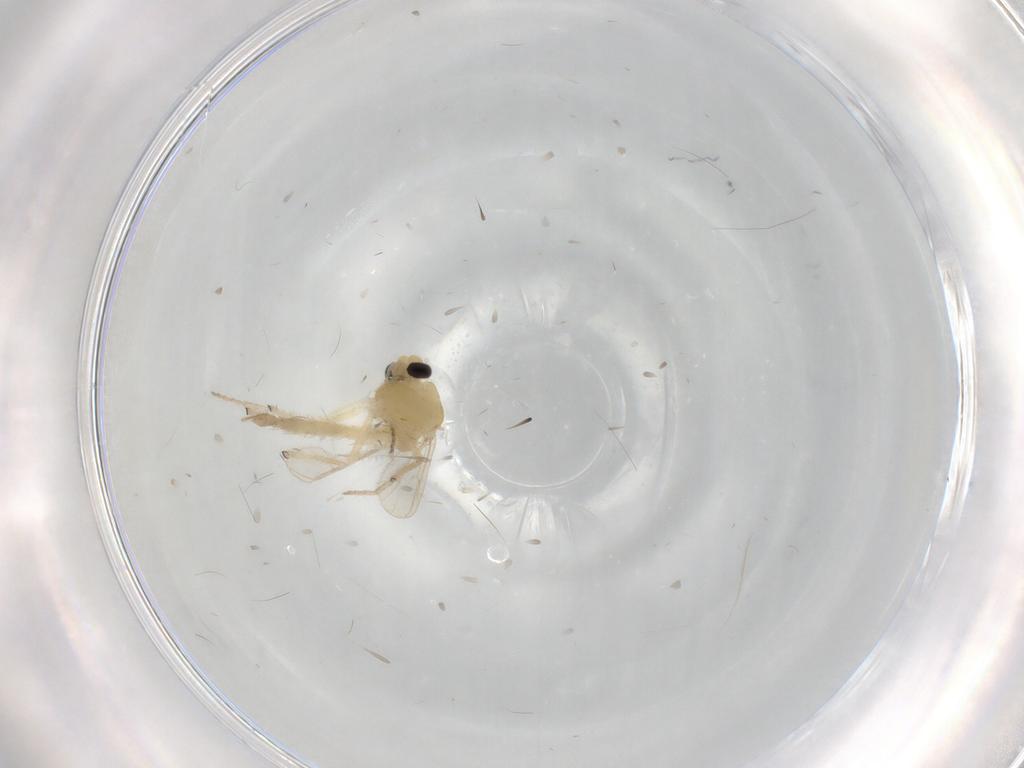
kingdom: Animalia
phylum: Arthropoda
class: Insecta
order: Diptera
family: Chironomidae
